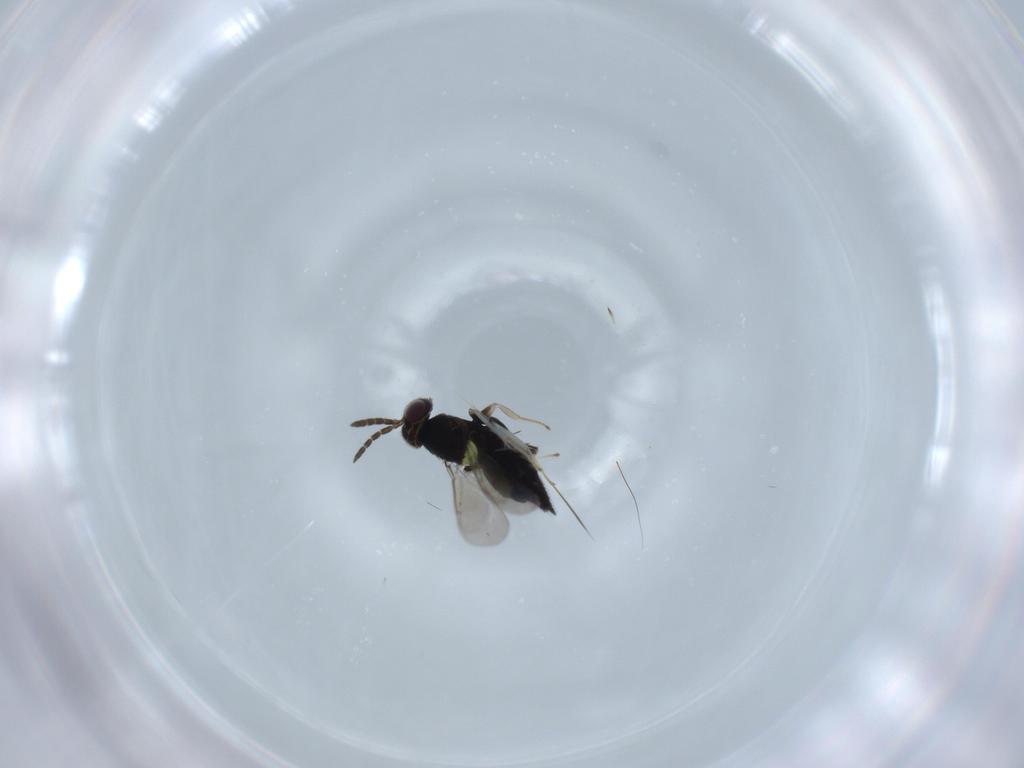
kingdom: Animalia
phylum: Arthropoda
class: Insecta
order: Hymenoptera
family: Aphelinidae
